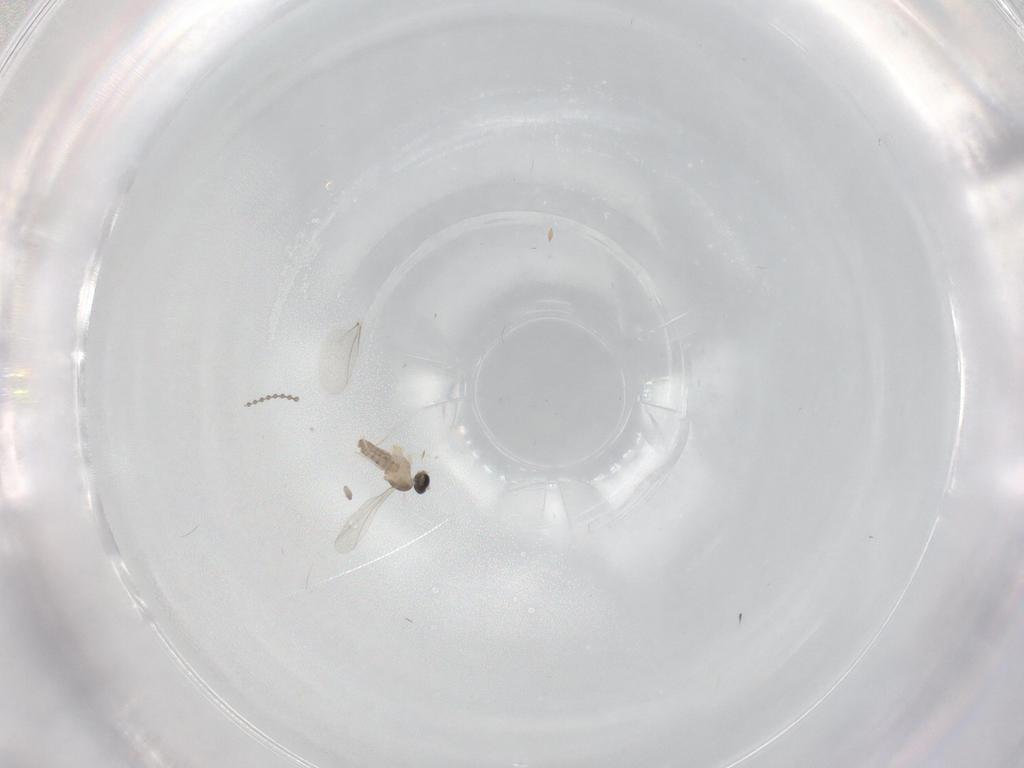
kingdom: Animalia
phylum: Arthropoda
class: Insecta
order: Diptera
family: Cecidomyiidae
